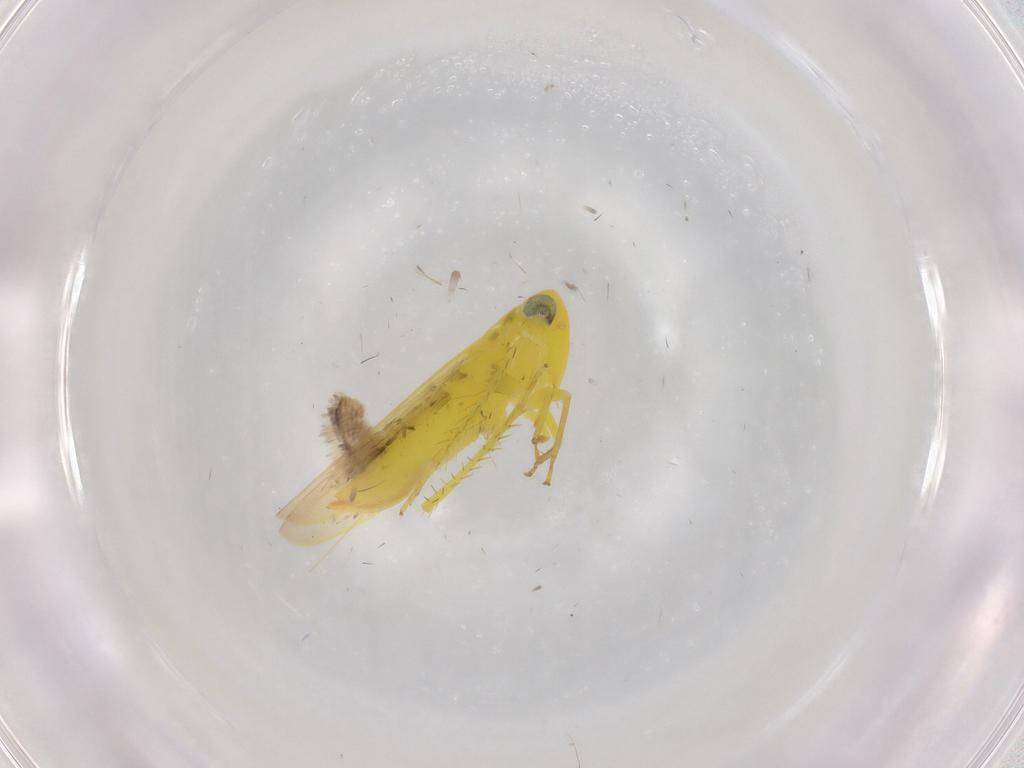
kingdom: Animalia
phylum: Arthropoda
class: Insecta
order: Hemiptera
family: Cicadellidae
